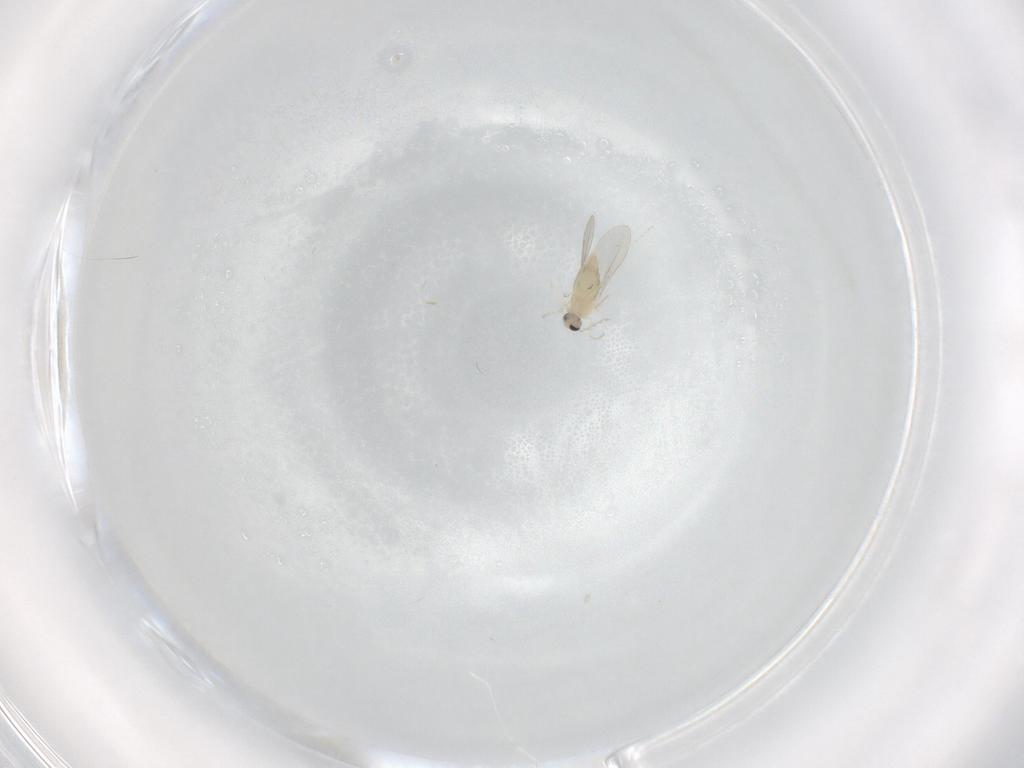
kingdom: Animalia
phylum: Arthropoda
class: Insecta
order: Diptera
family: Cecidomyiidae
